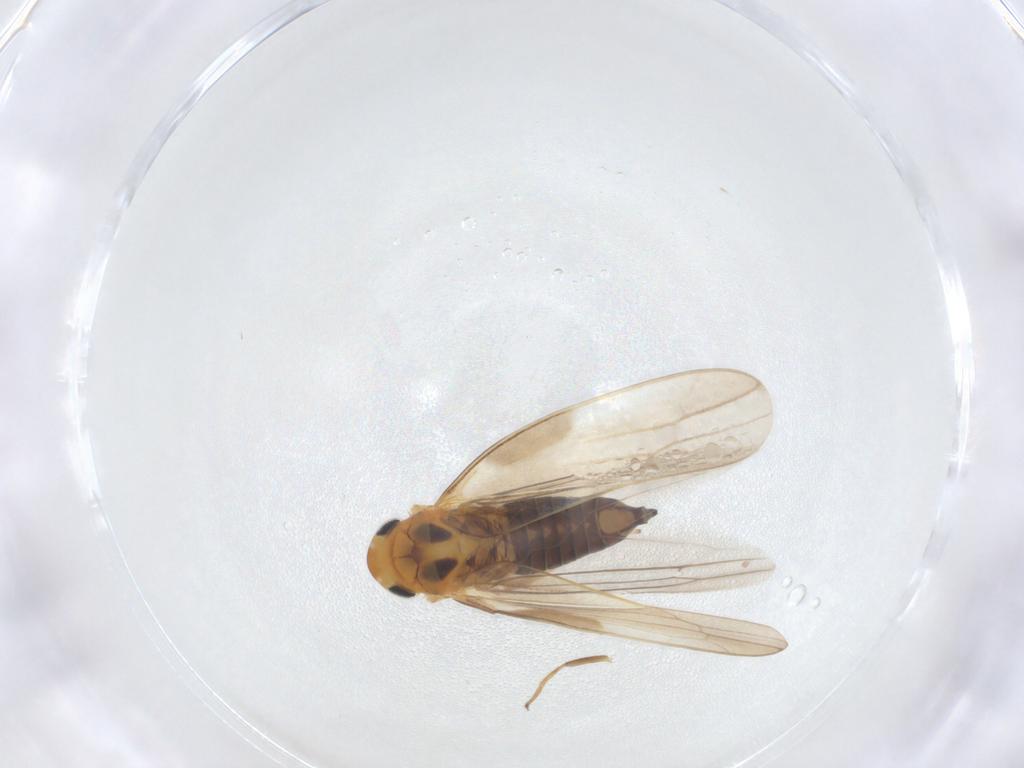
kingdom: Animalia
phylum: Arthropoda
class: Insecta
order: Hemiptera
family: Cicadellidae
